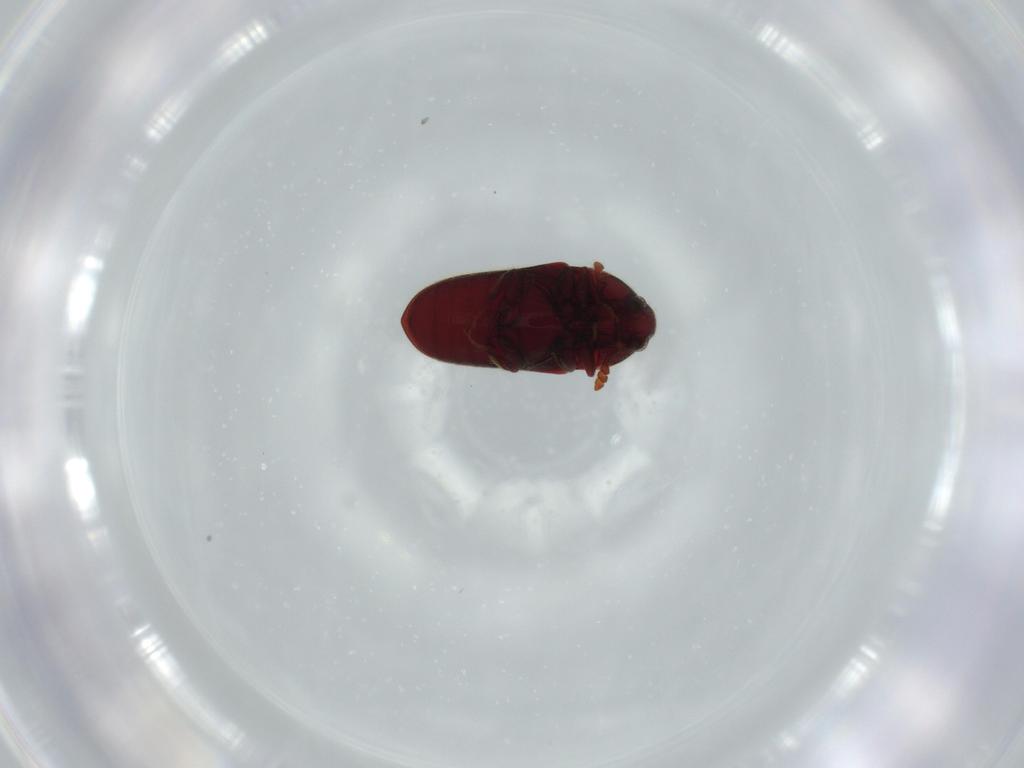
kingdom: Animalia
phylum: Arthropoda
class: Insecta
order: Coleoptera
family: Throscidae
